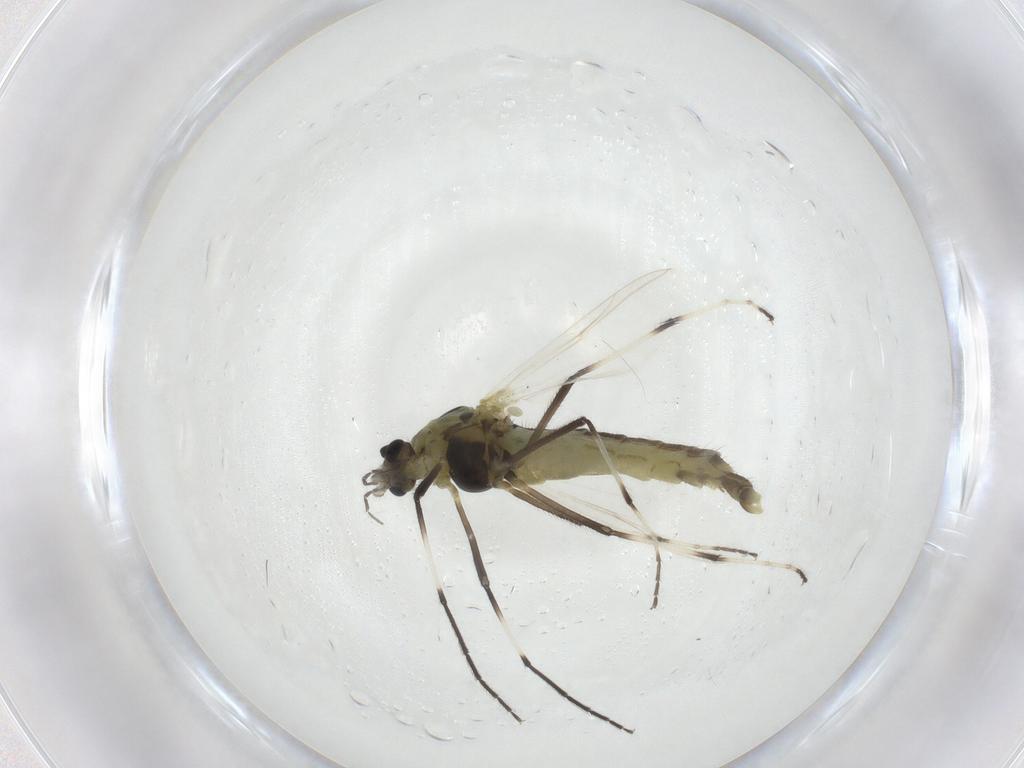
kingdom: Animalia
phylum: Arthropoda
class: Insecta
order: Diptera
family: Chironomidae
